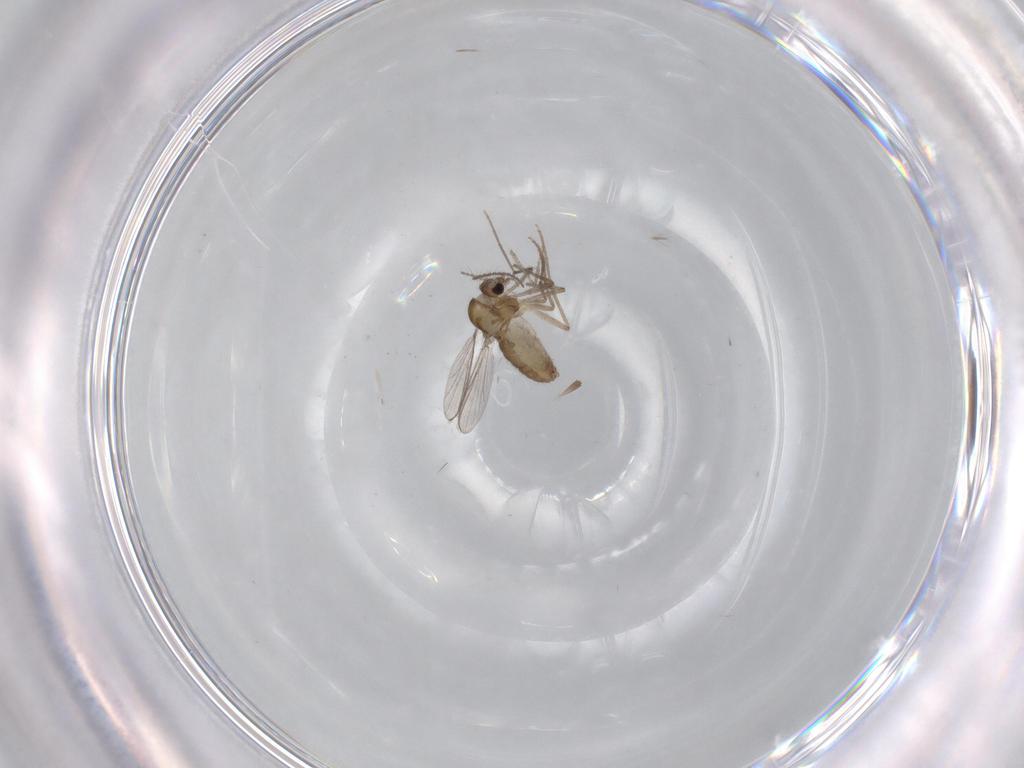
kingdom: Animalia
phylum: Arthropoda
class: Insecta
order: Diptera
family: Chironomidae
